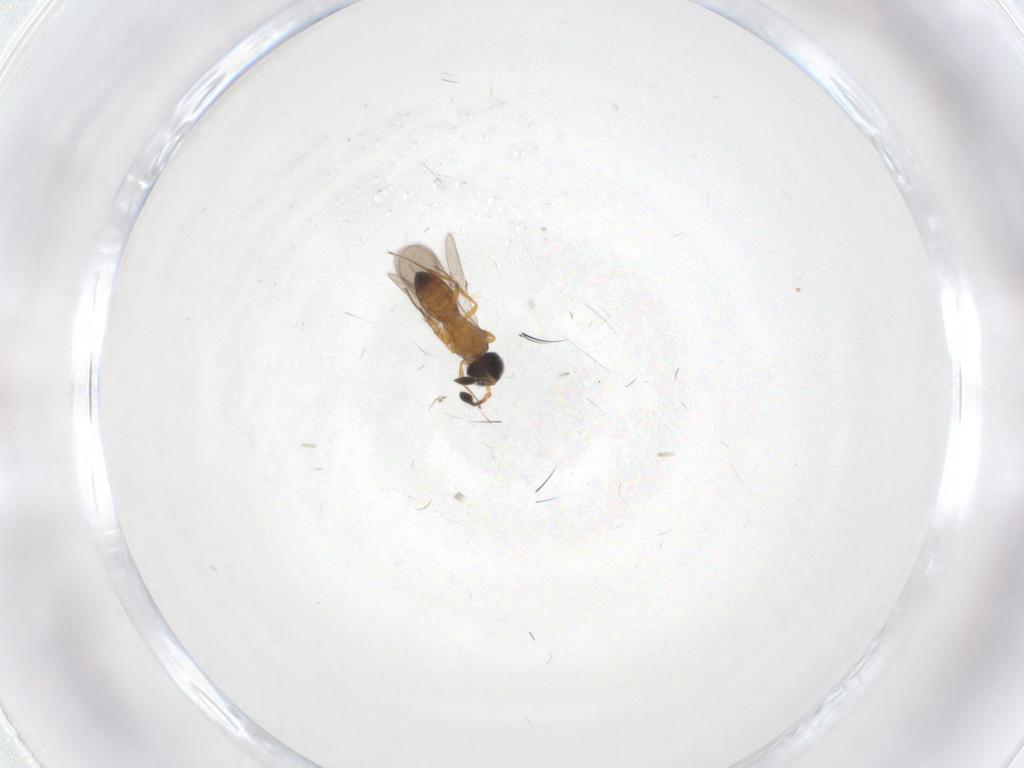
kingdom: Animalia
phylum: Arthropoda
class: Insecta
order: Hymenoptera
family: Scelionidae
